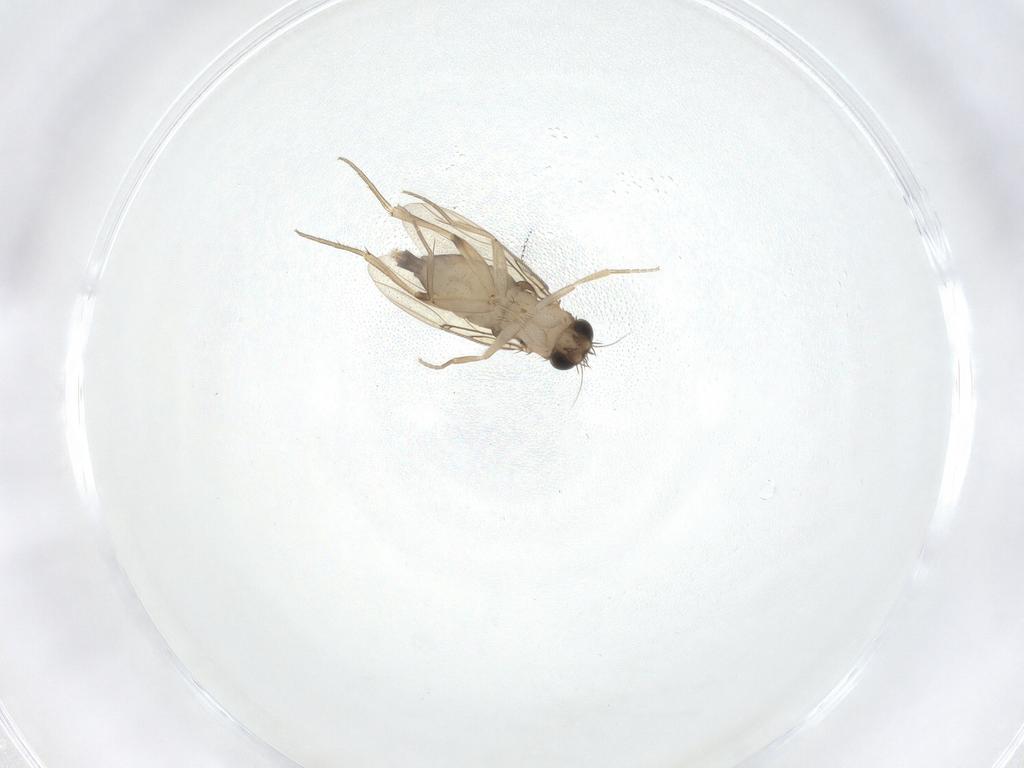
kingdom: Animalia
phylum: Arthropoda
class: Insecta
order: Diptera
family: Phoridae
